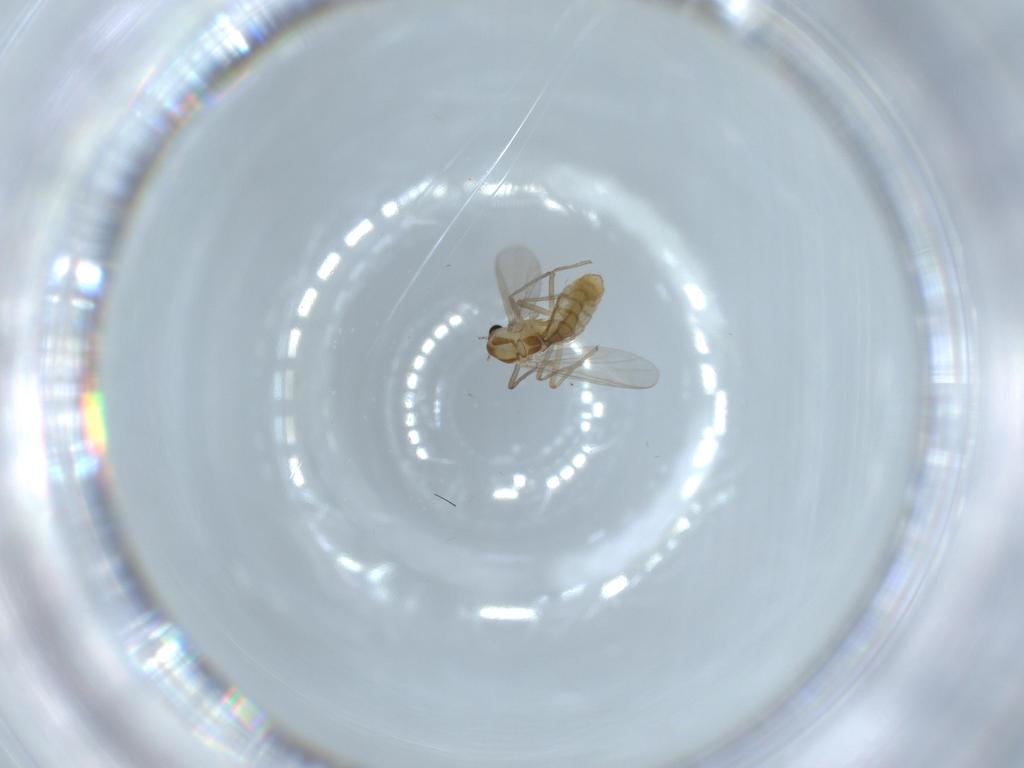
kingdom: Animalia
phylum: Arthropoda
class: Insecta
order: Diptera
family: Chironomidae
